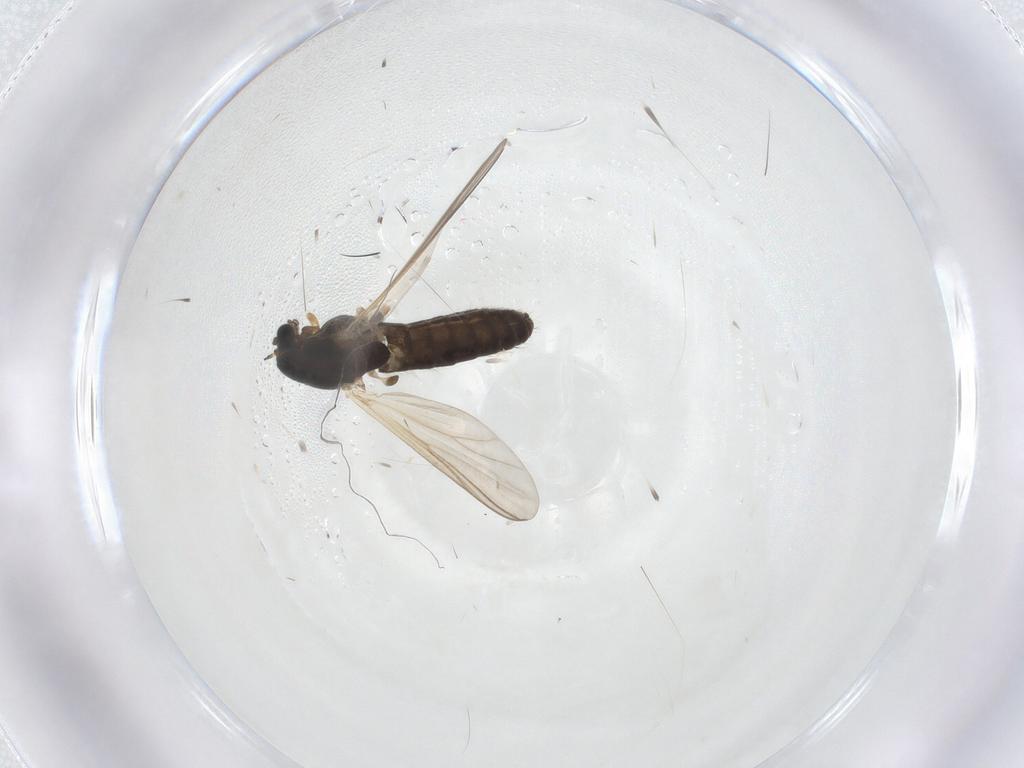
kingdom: Animalia
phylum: Arthropoda
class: Insecta
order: Diptera
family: Chironomidae
